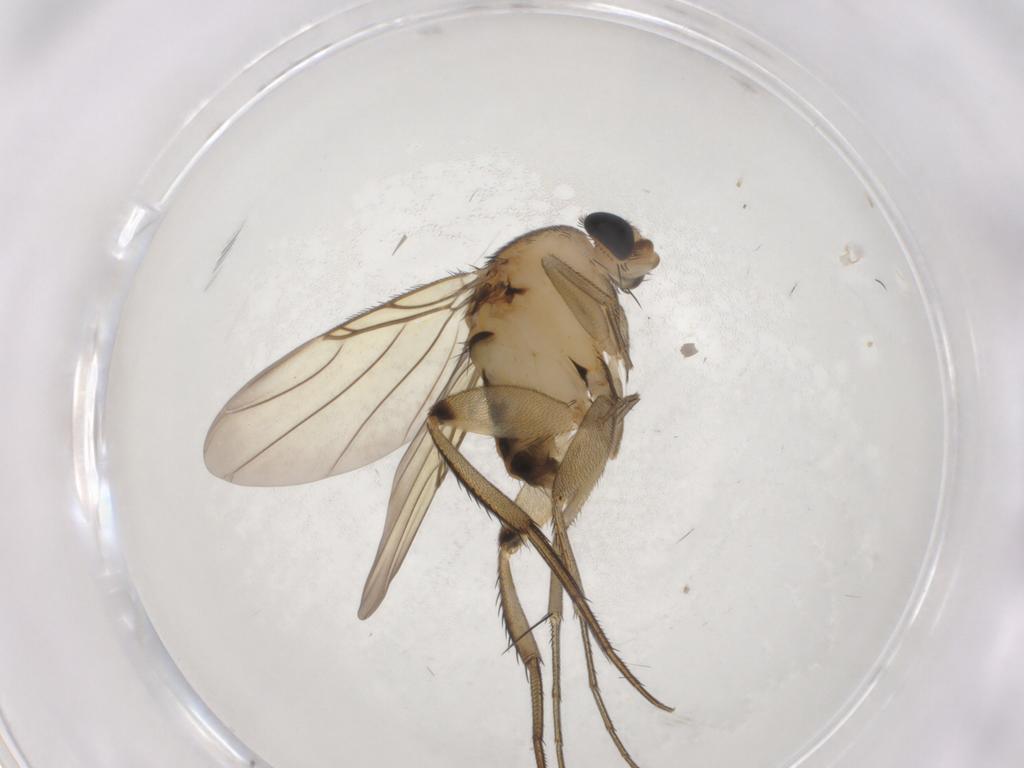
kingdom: Animalia
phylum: Arthropoda
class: Insecta
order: Diptera
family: Phoridae
